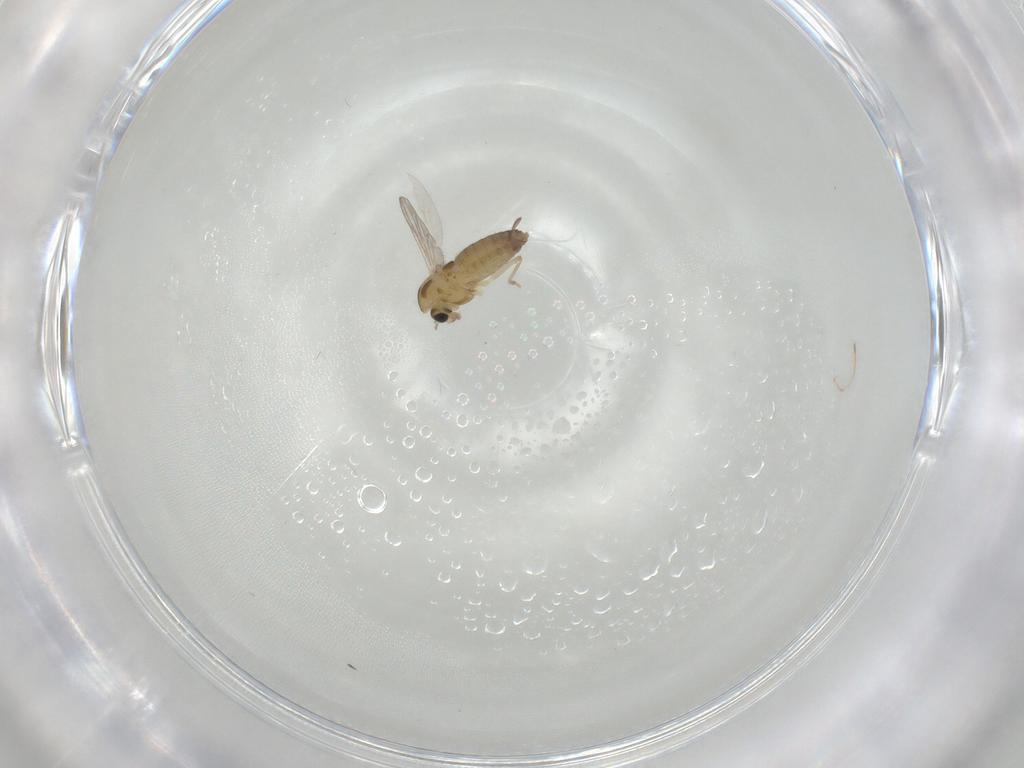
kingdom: Animalia
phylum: Arthropoda
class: Insecta
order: Diptera
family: Chironomidae
